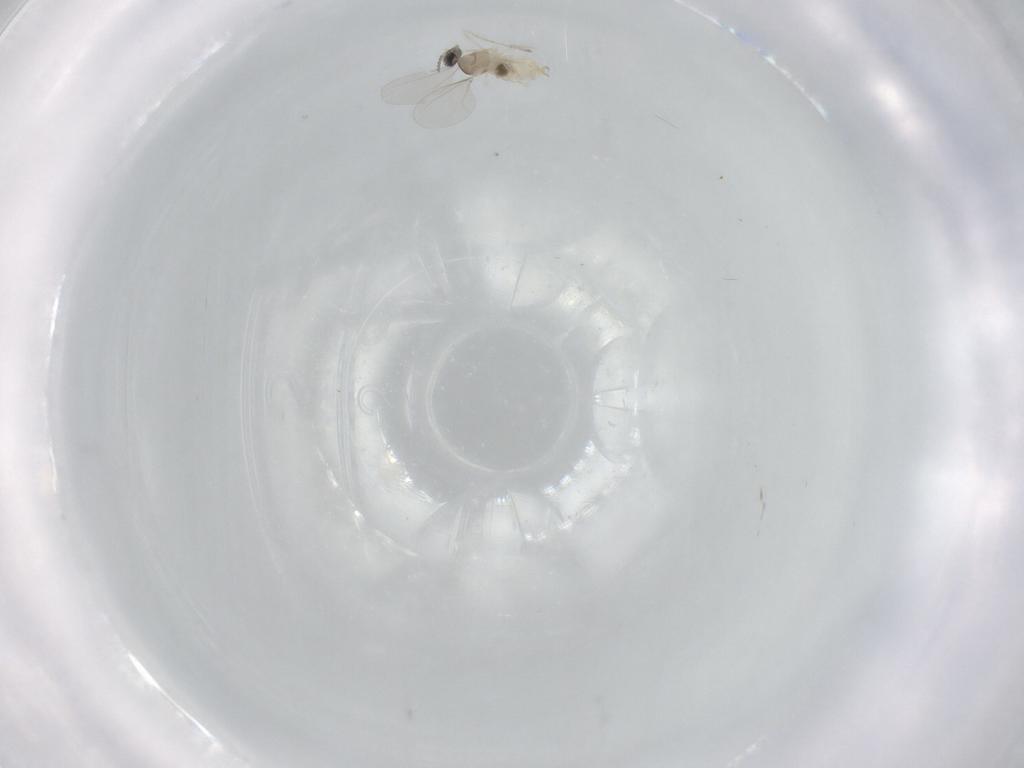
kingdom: Animalia
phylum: Arthropoda
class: Insecta
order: Diptera
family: Cecidomyiidae
